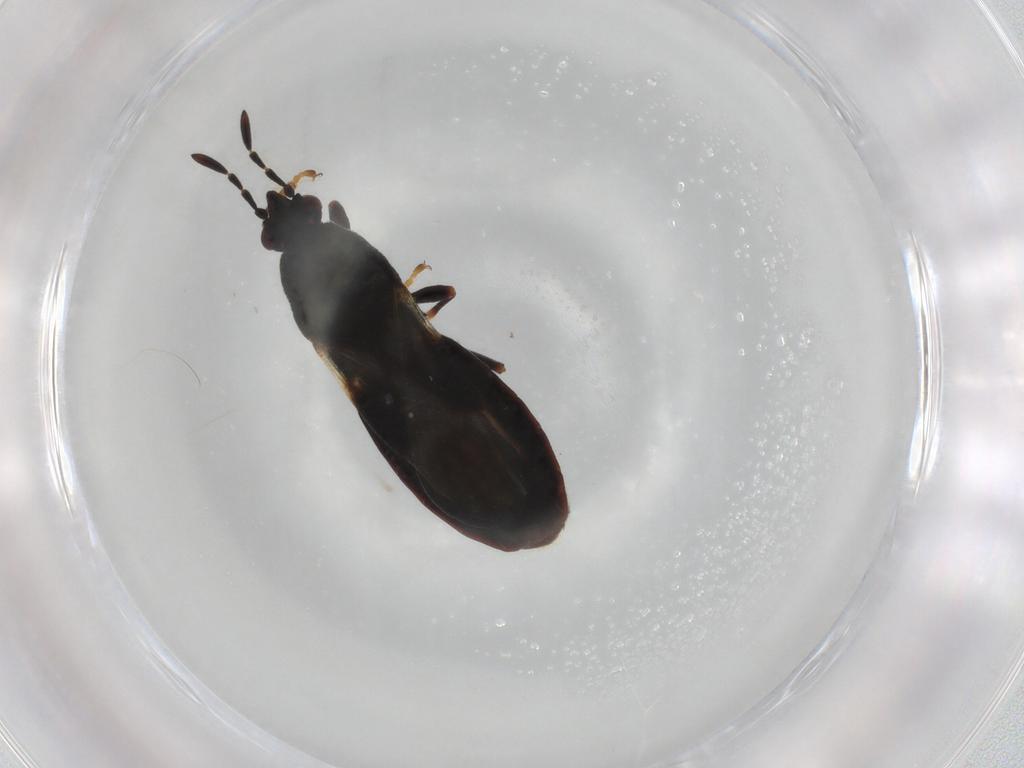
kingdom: Animalia
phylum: Arthropoda
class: Insecta
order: Hemiptera
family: Blissidae
